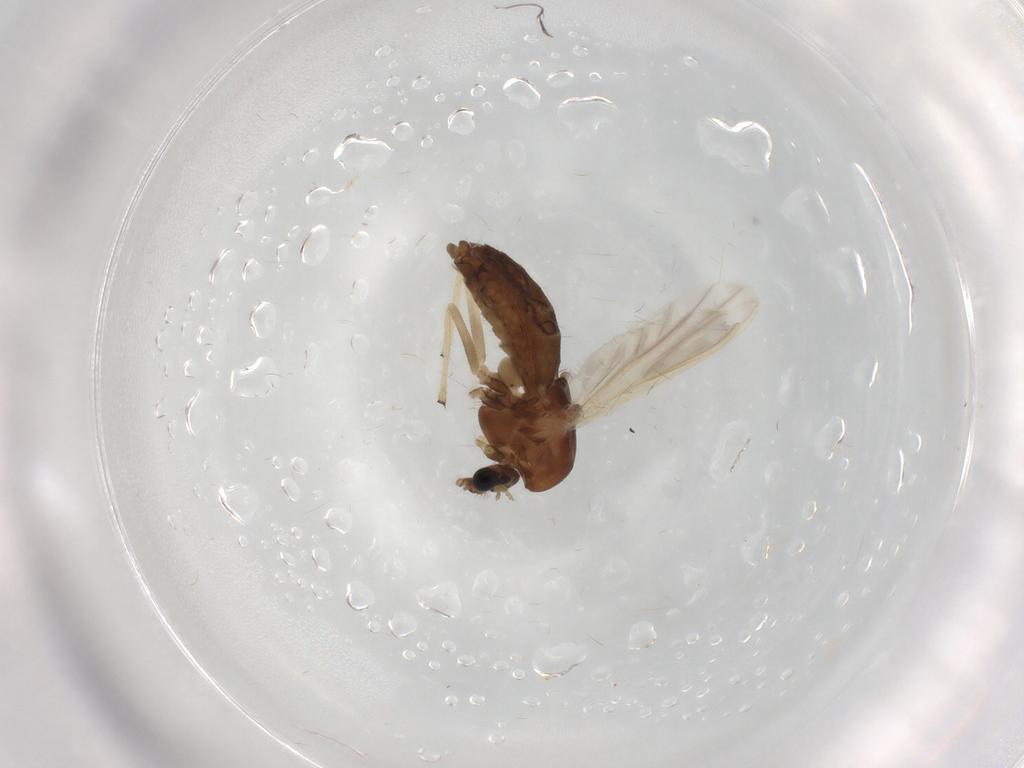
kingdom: Animalia
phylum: Arthropoda
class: Insecta
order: Diptera
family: Chironomidae
